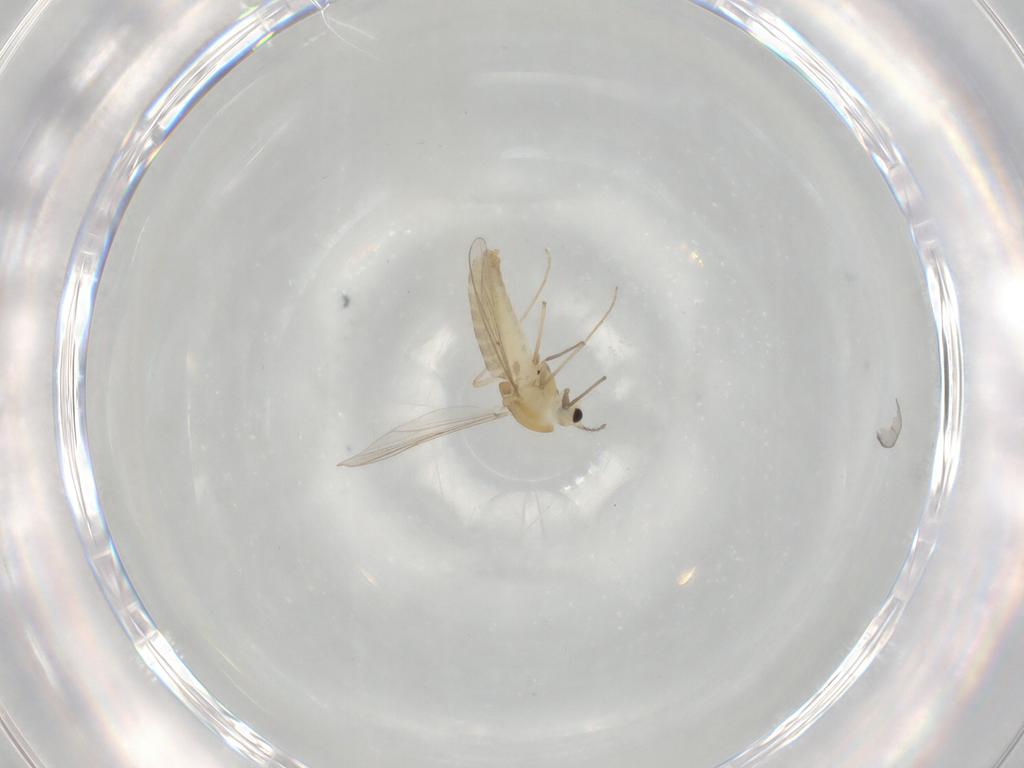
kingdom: Animalia
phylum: Arthropoda
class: Insecta
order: Diptera
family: Chironomidae
